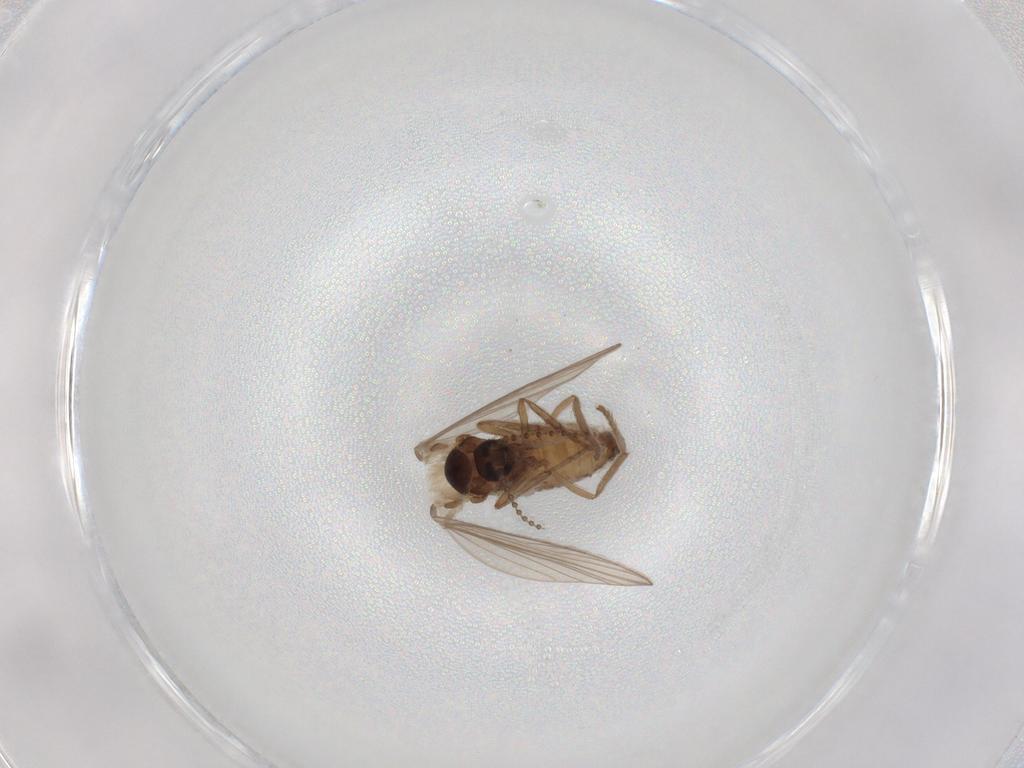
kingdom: Animalia
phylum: Arthropoda
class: Insecta
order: Diptera
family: Psychodidae
